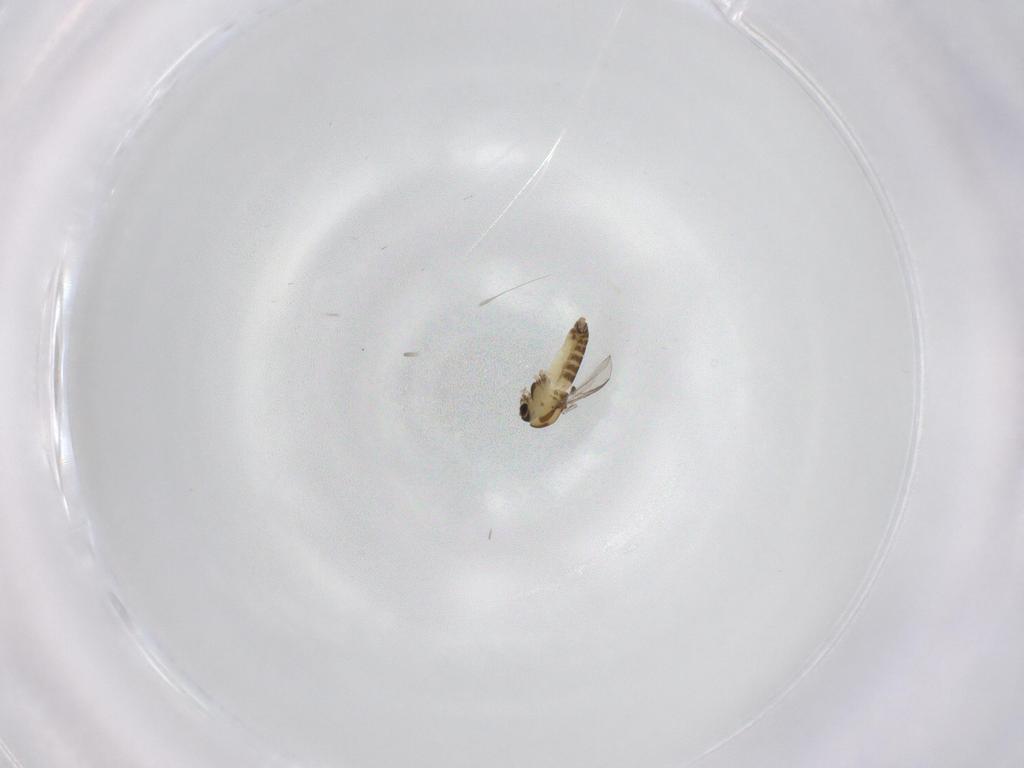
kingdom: Animalia
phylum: Arthropoda
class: Insecta
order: Diptera
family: Chironomidae
